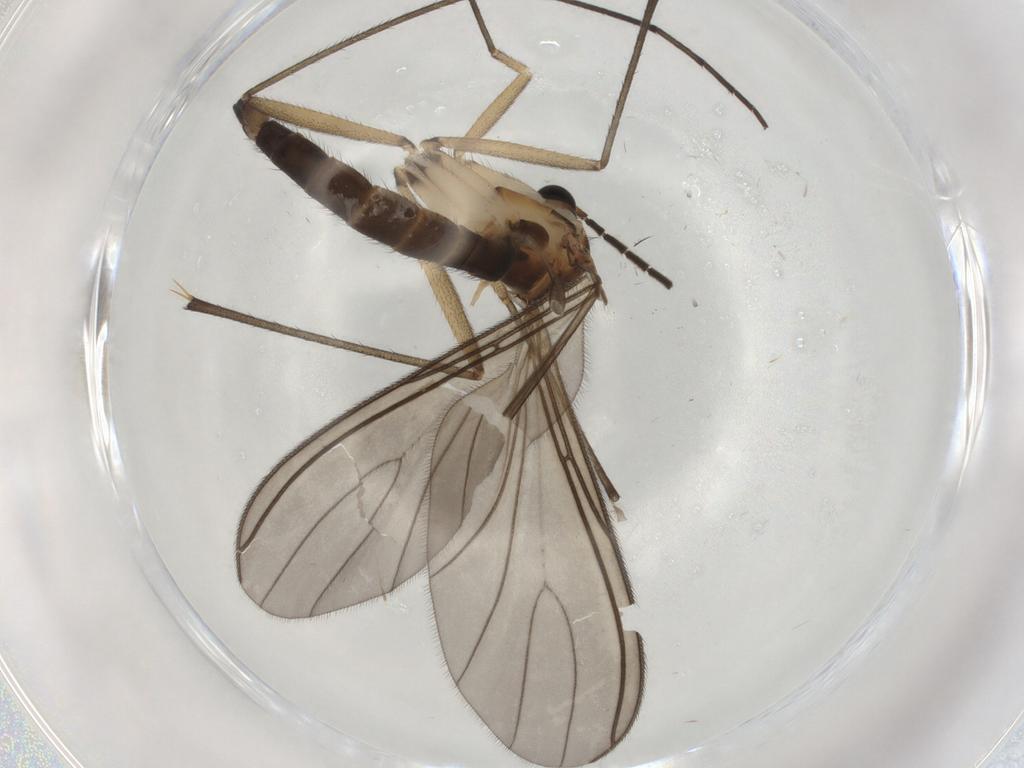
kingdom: Animalia
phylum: Arthropoda
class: Insecta
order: Diptera
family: Sciaridae
